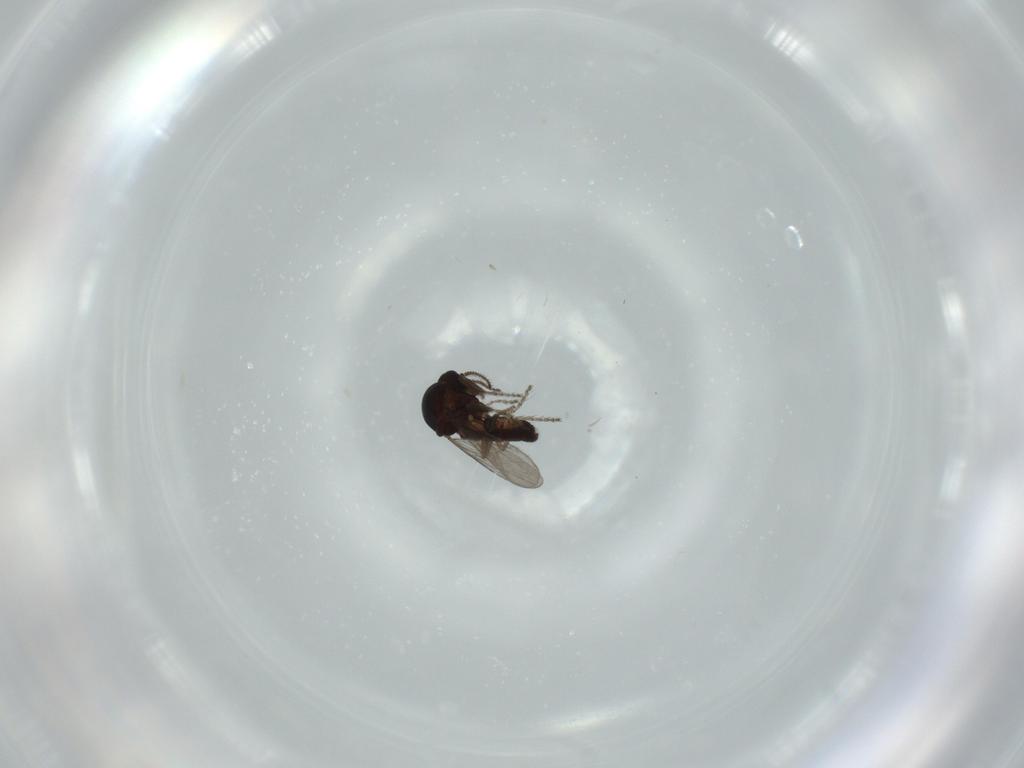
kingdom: Animalia
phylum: Arthropoda
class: Insecta
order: Diptera
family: Ceratopogonidae
